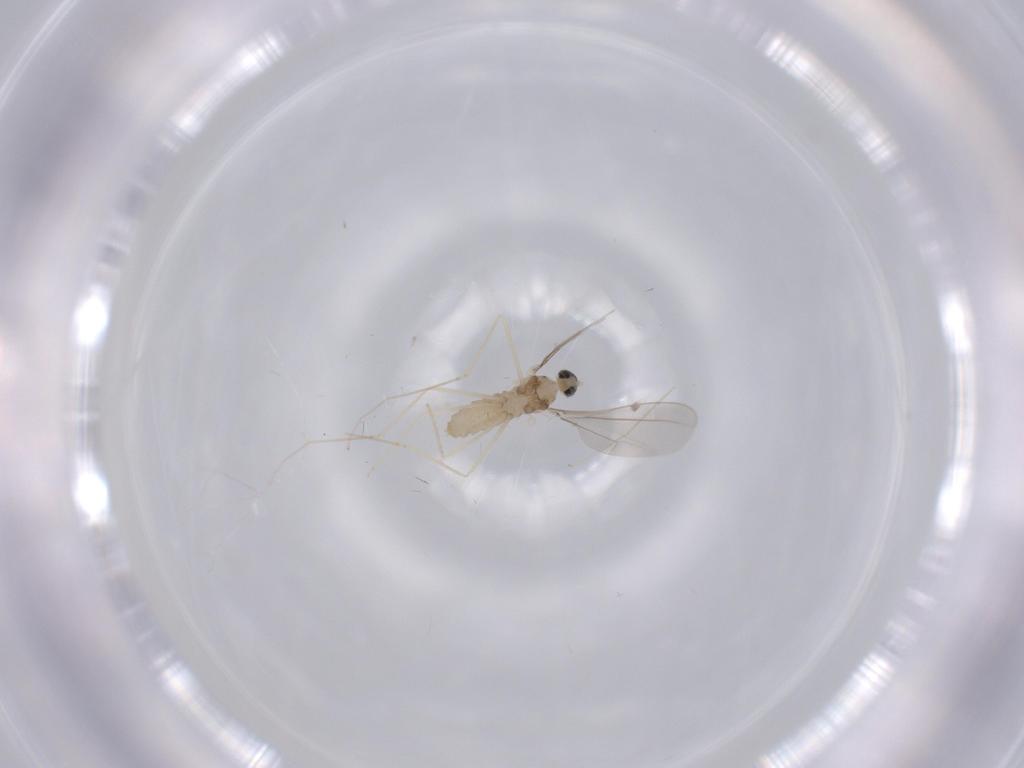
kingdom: Animalia
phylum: Arthropoda
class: Insecta
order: Diptera
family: Cecidomyiidae
